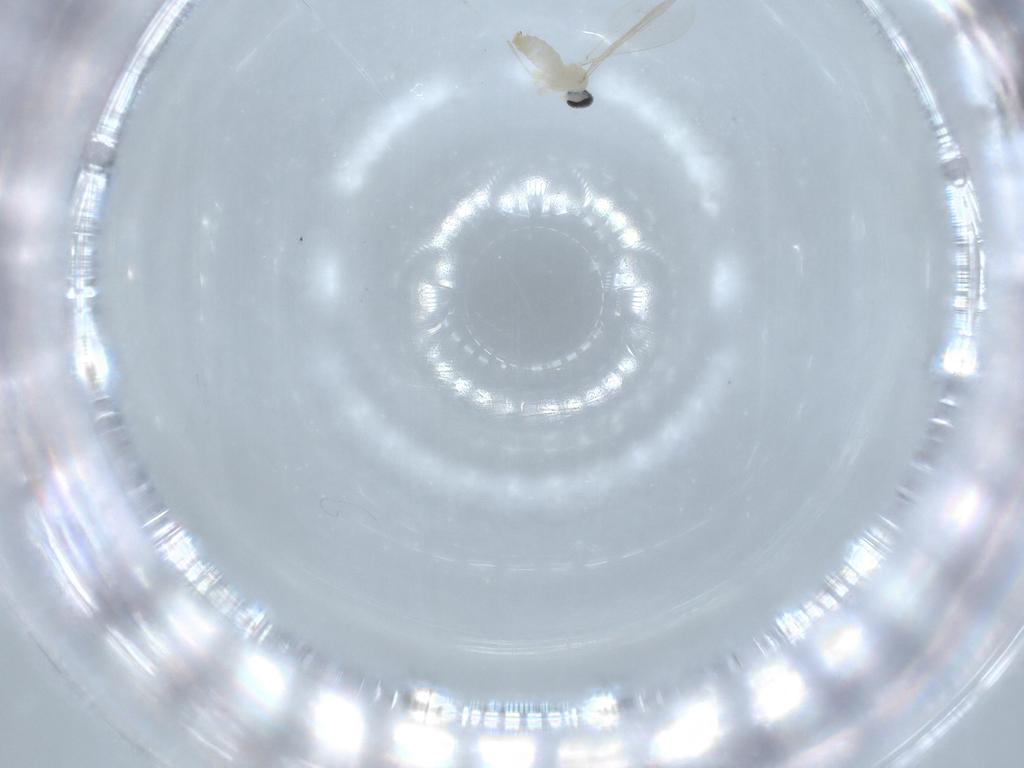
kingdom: Animalia
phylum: Arthropoda
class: Insecta
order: Diptera
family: Cecidomyiidae
